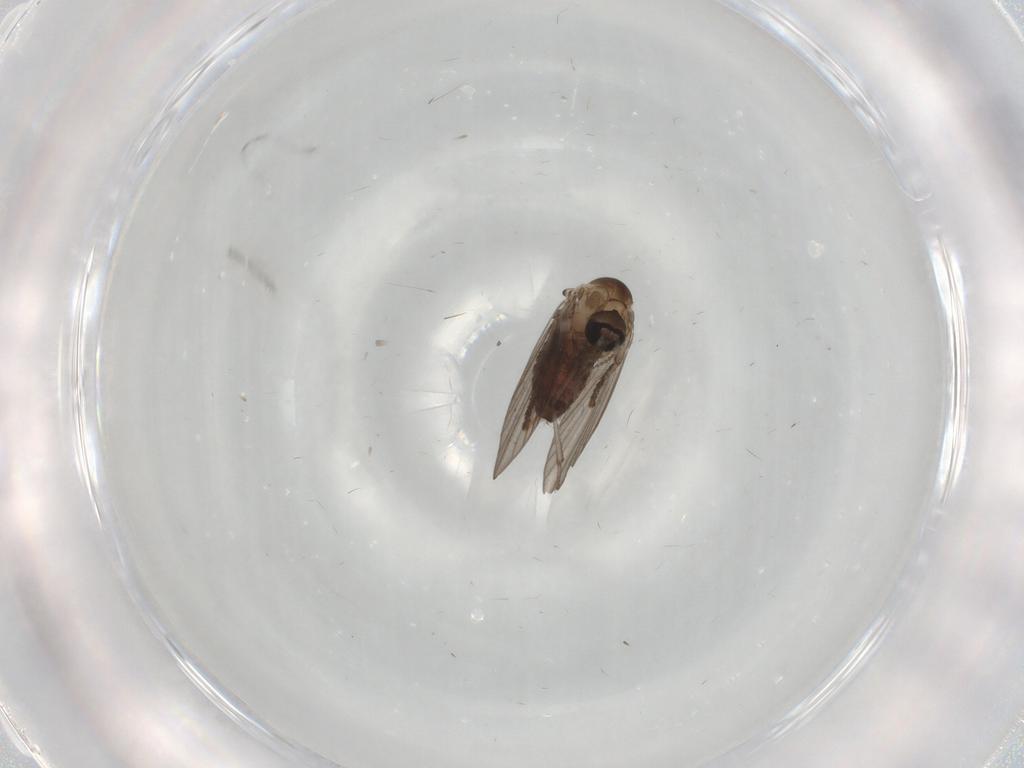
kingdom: Animalia
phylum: Arthropoda
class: Insecta
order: Diptera
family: Psychodidae
